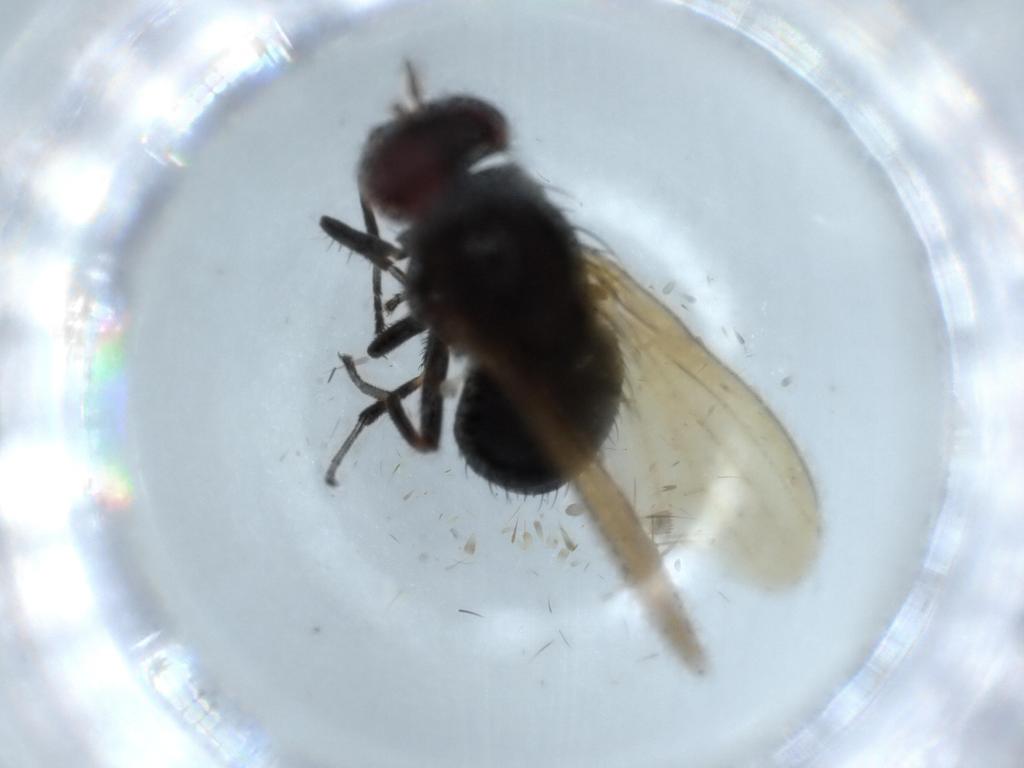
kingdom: Animalia
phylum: Arthropoda
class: Insecta
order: Diptera
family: Lauxaniidae
